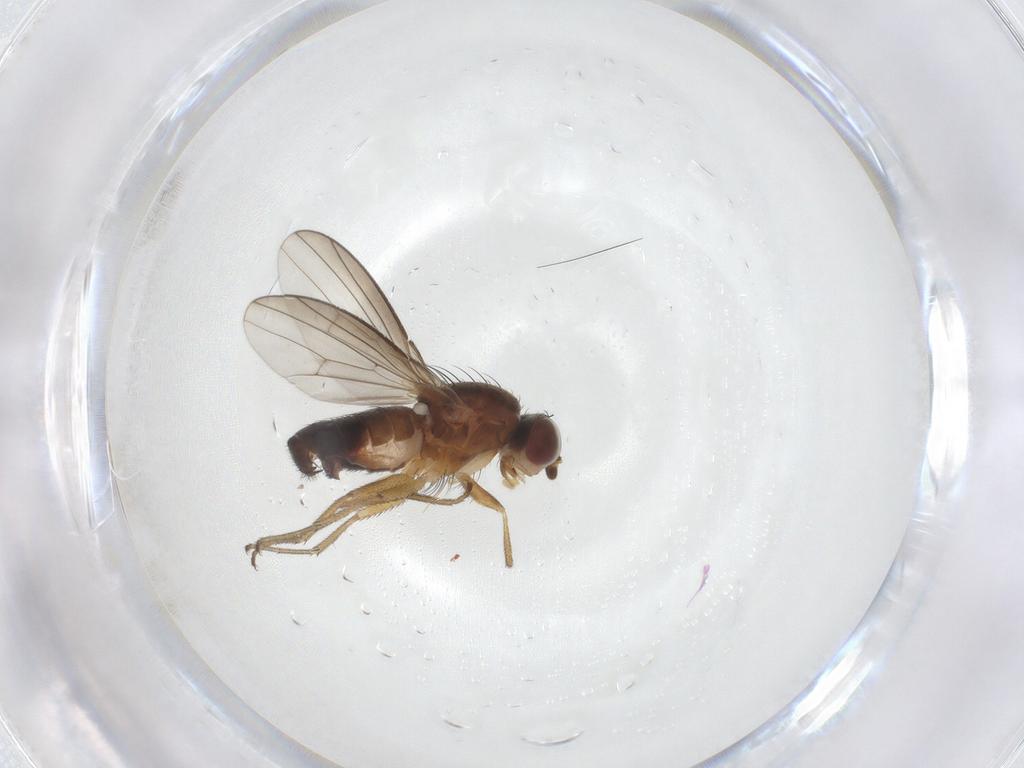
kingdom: Animalia
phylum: Arthropoda
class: Insecta
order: Diptera
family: Heleomyzidae
